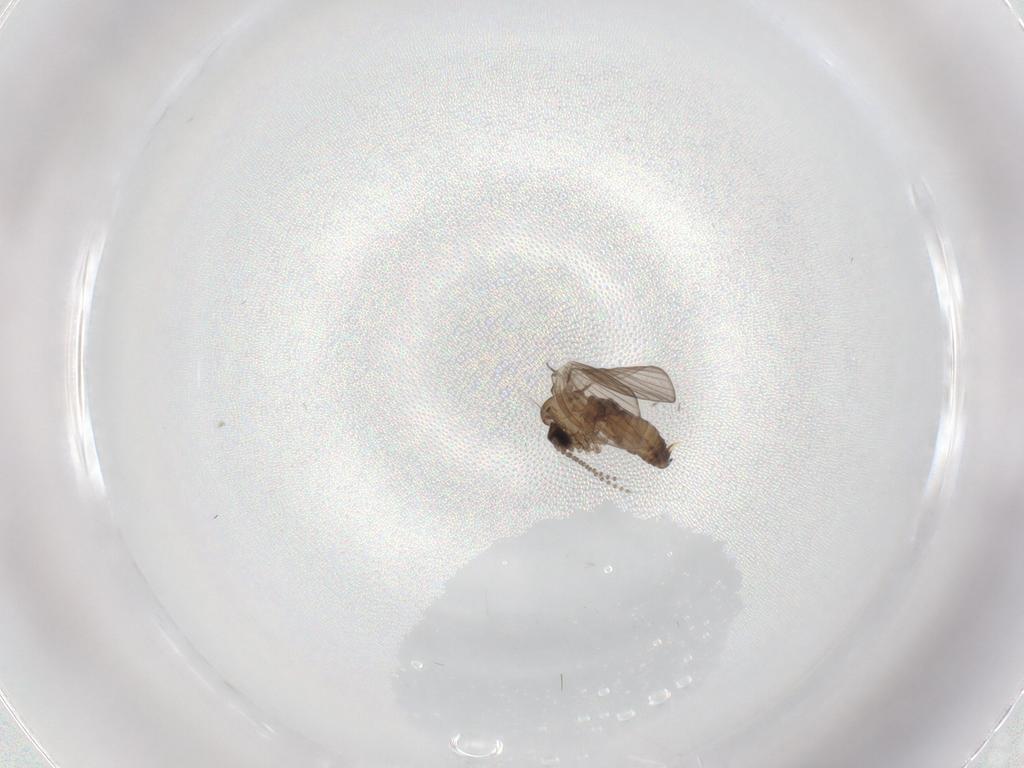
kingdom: Animalia
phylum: Arthropoda
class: Insecta
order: Diptera
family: Psychodidae
